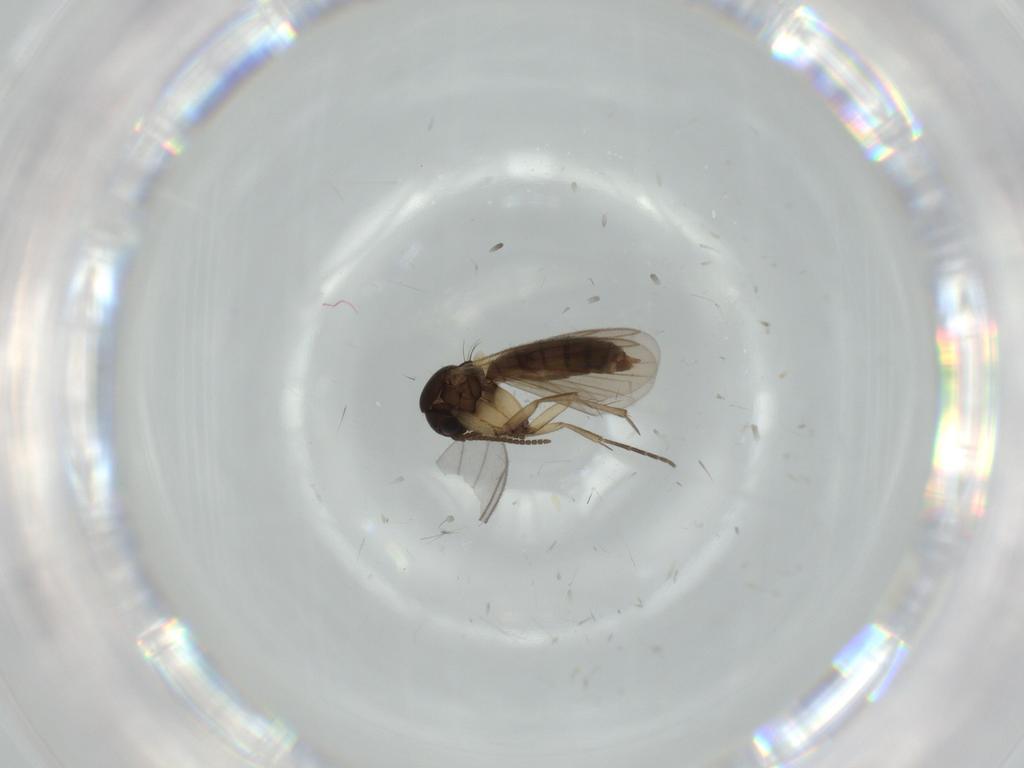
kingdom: Animalia
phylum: Arthropoda
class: Insecta
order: Diptera
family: Mycetophilidae
